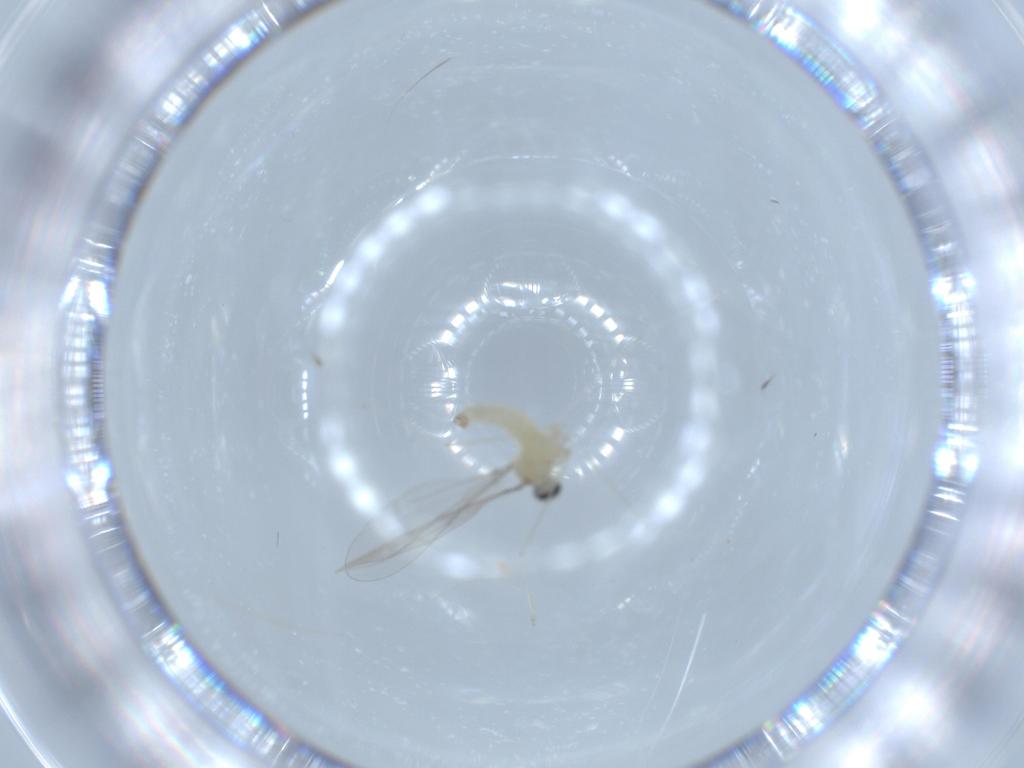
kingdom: Animalia
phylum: Arthropoda
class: Insecta
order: Diptera
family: Cecidomyiidae
